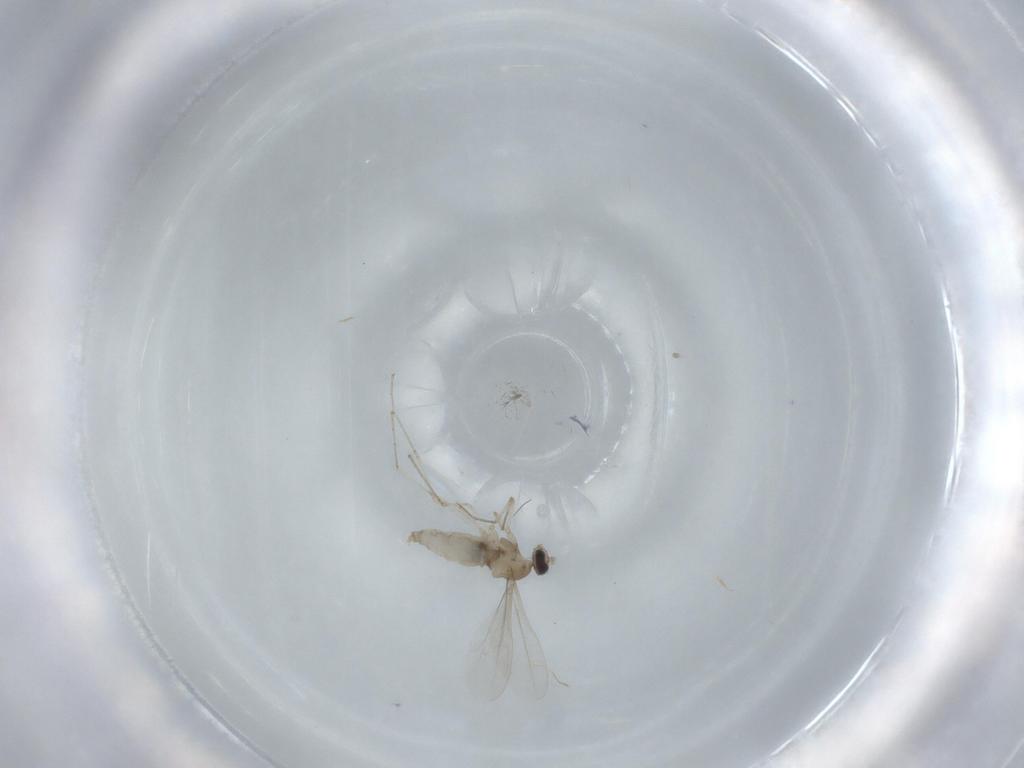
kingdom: Animalia
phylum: Arthropoda
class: Insecta
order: Diptera
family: Cecidomyiidae
